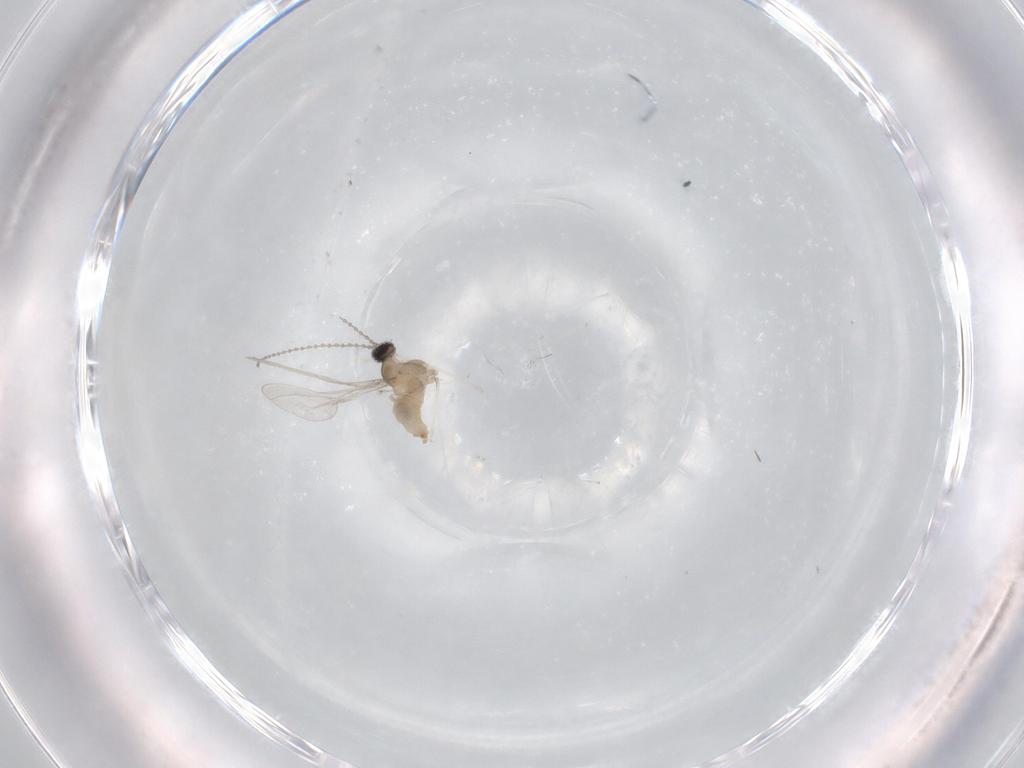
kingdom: Animalia
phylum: Arthropoda
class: Insecta
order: Diptera
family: Cecidomyiidae
